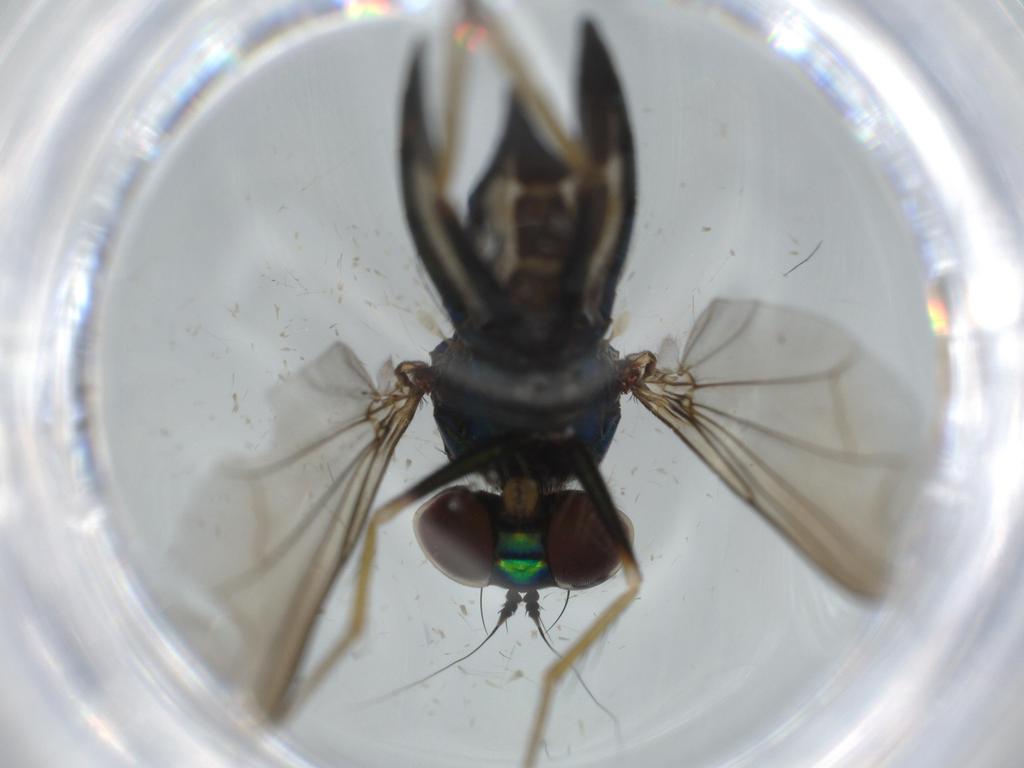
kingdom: Animalia
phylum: Arthropoda
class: Insecta
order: Diptera
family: Dolichopodidae
